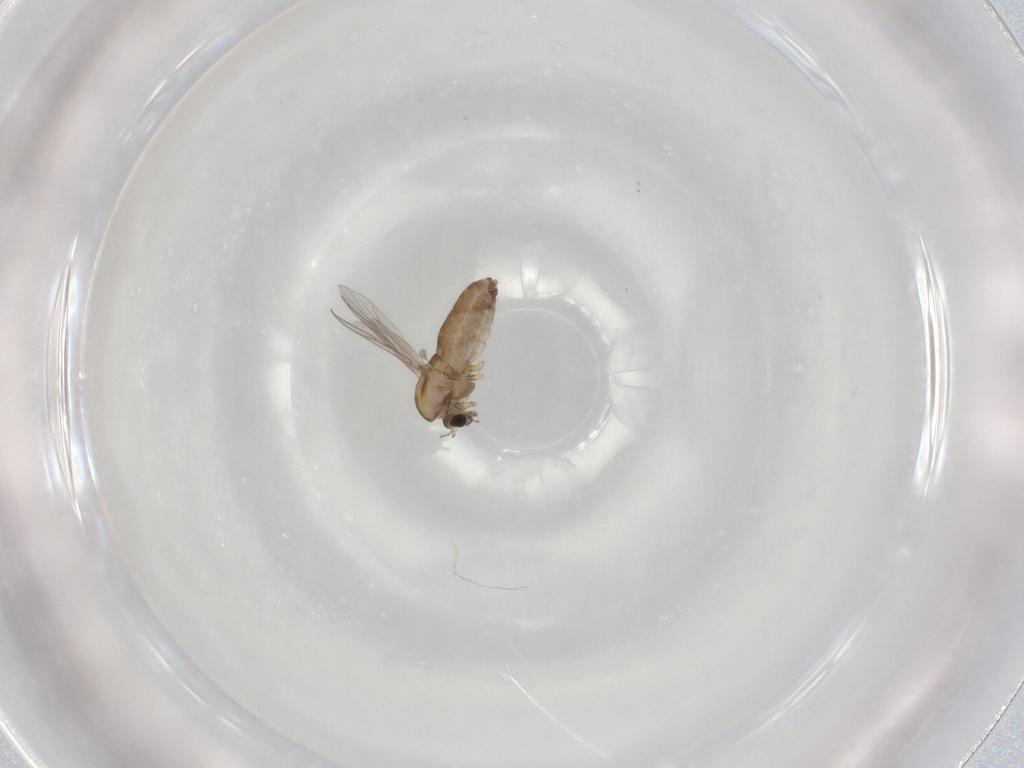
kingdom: Animalia
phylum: Arthropoda
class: Insecta
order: Diptera
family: Chironomidae
